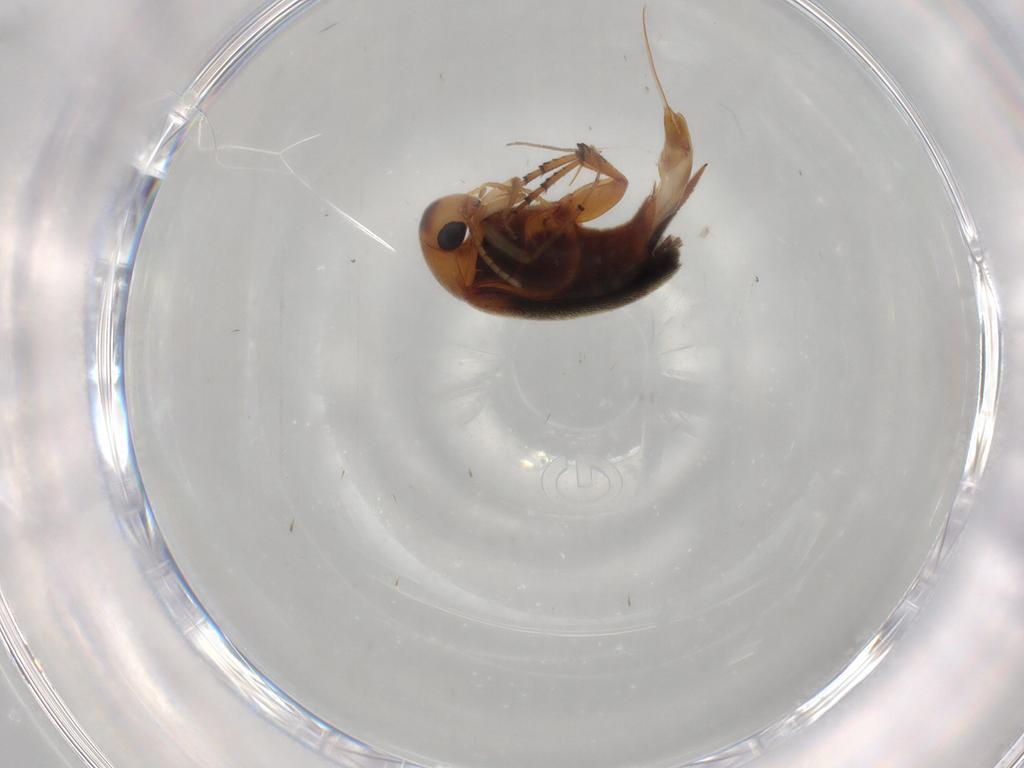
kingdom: Animalia
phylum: Arthropoda
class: Insecta
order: Coleoptera
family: Mordellidae
